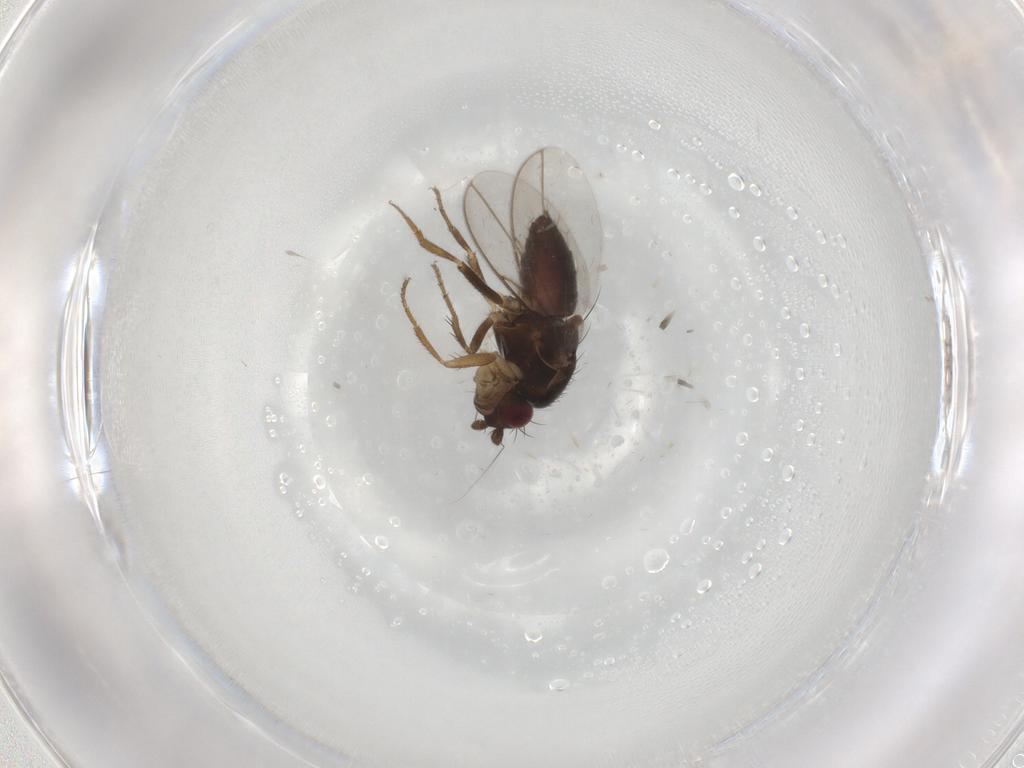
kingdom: Animalia
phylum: Arthropoda
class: Insecta
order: Diptera
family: Sphaeroceridae
